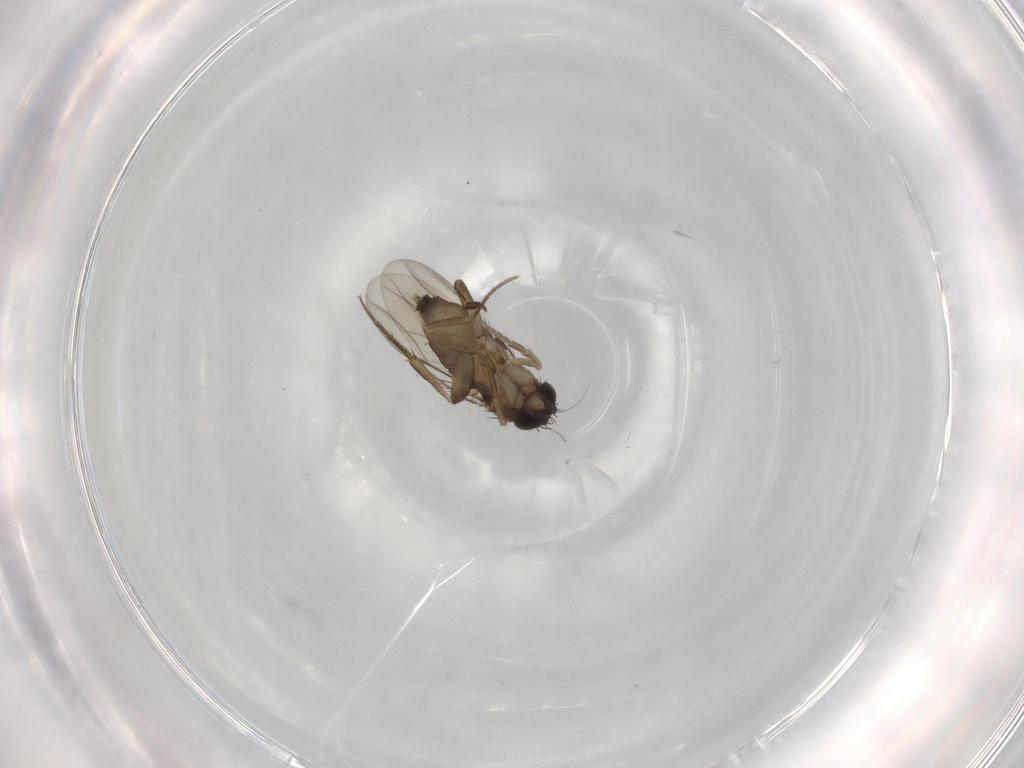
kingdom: Animalia
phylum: Arthropoda
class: Insecta
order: Diptera
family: Phoridae
